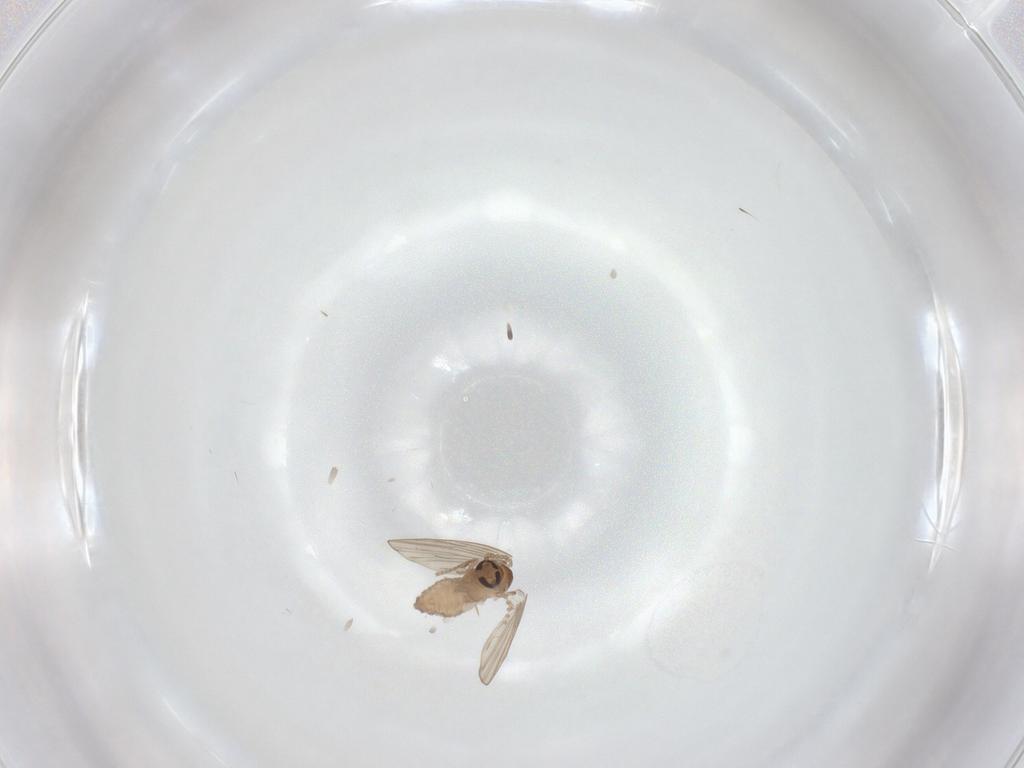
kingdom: Animalia
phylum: Arthropoda
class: Insecta
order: Diptera
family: Psychodidae
